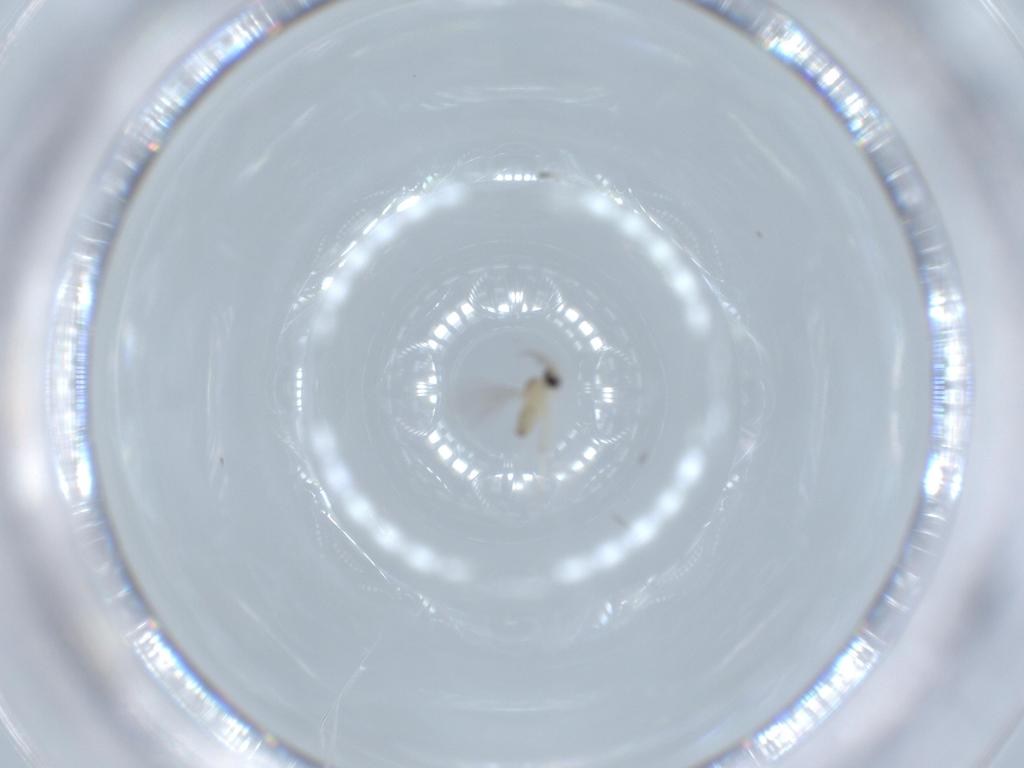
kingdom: Animalia
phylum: Arthropoda
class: Insecta
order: Diptera
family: Cecidomyiidae
